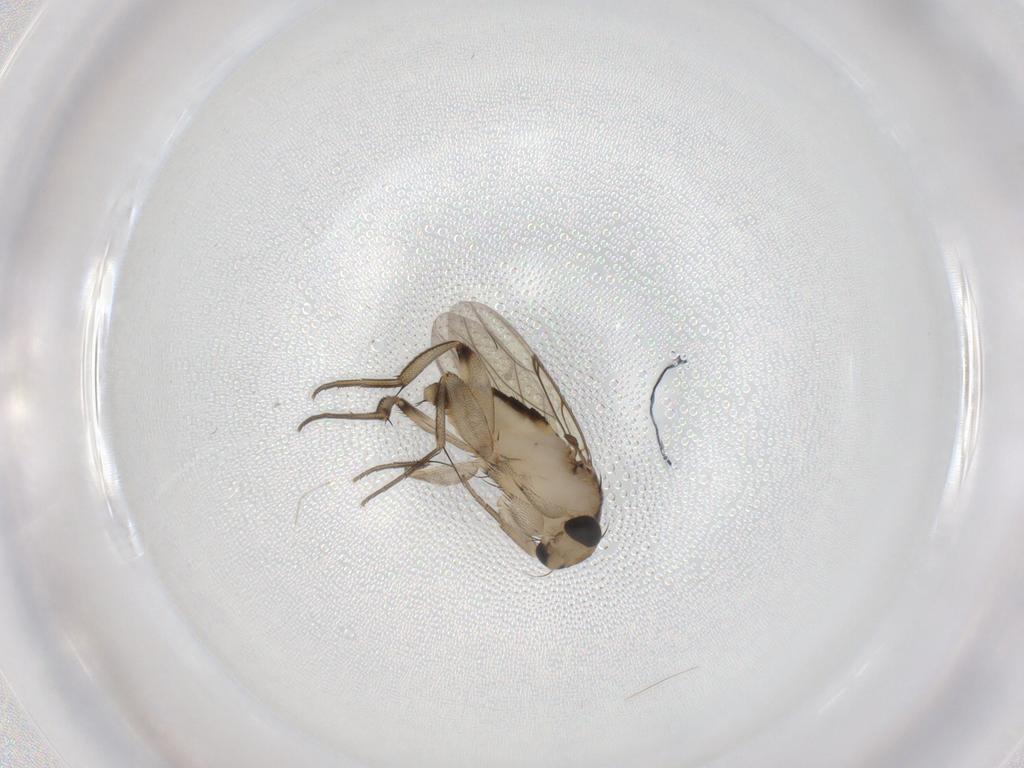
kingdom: Animalia
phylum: Arthropoda
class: Insecta
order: Diptera
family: Phoridae
